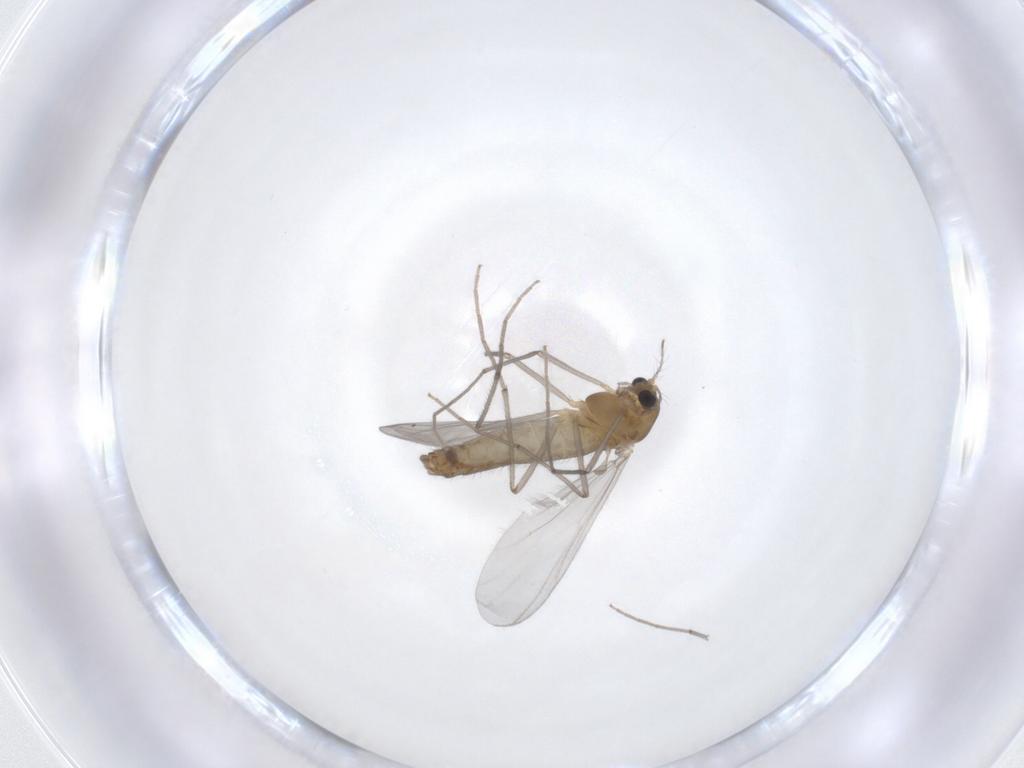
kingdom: Animalia
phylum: Arthropoda
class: Insecta
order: Diptera
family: Chironomidae
